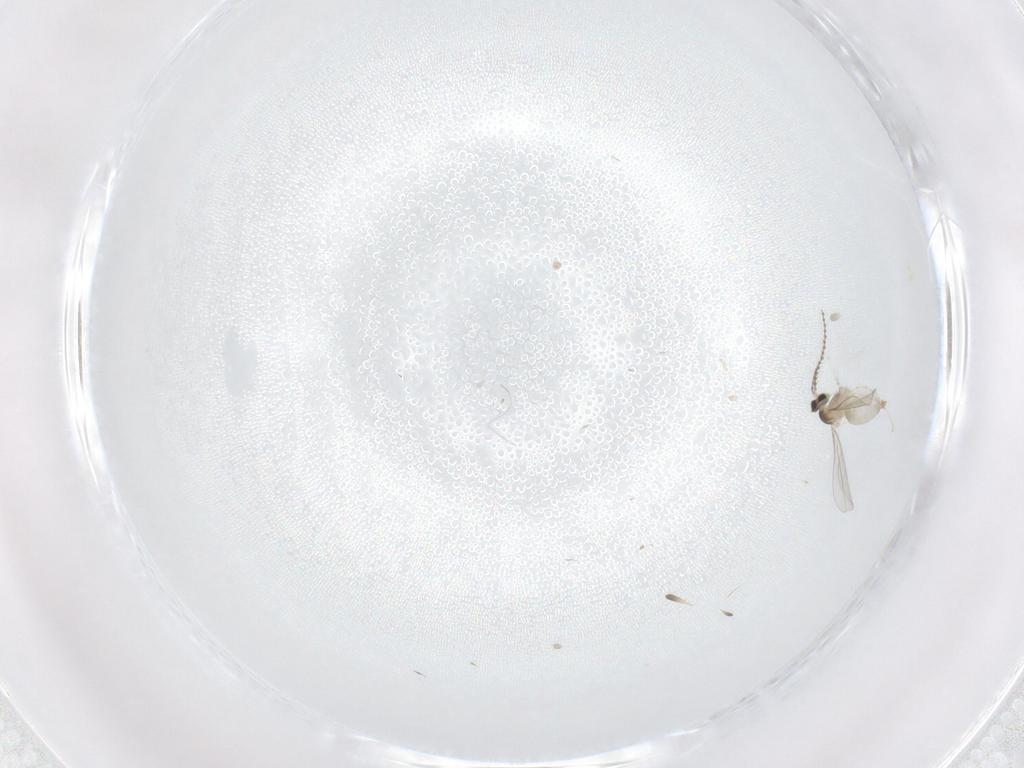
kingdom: Animalia
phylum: Arthropoda
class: Insecta
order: Diptera
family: Cecidomyiidae
